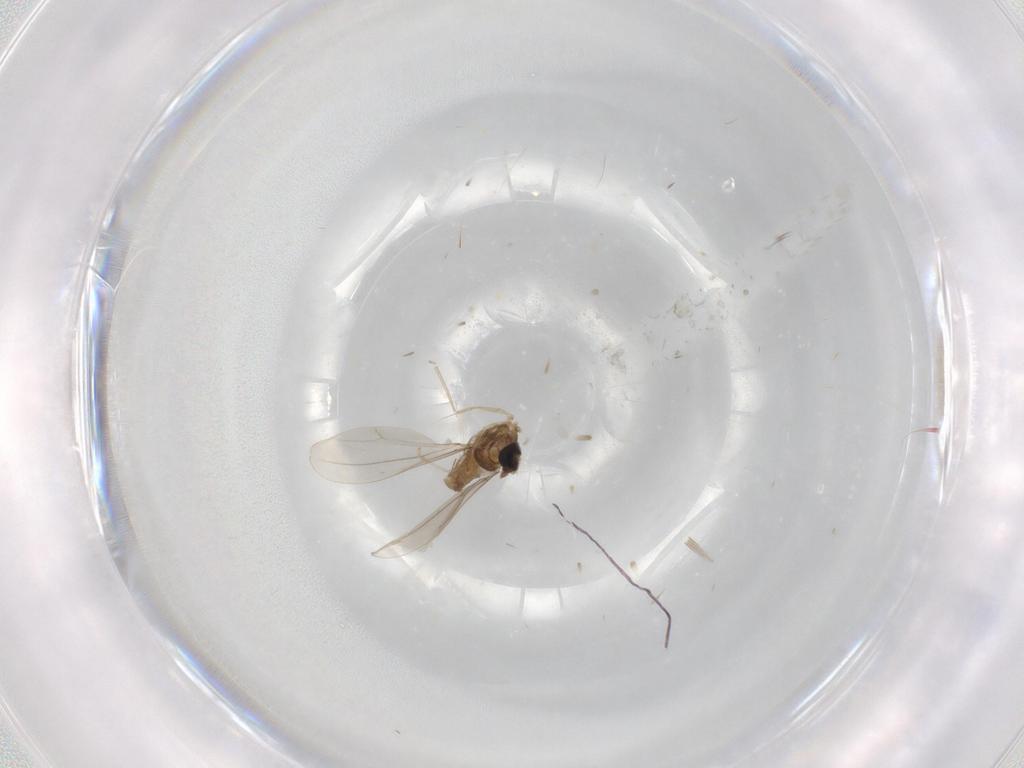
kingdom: Animalia
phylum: Arthropoda
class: Insecta
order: Diptera
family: Cecidomyiidae
